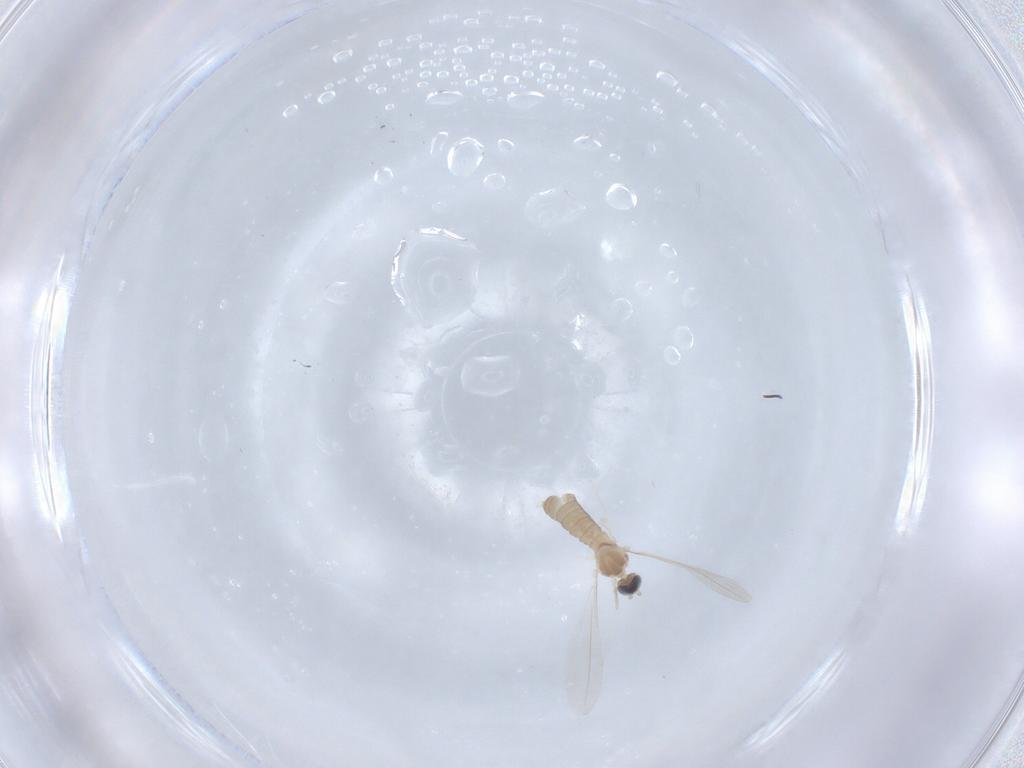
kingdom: Animalia
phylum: Arthropoda
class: Insecta
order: Diptera
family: Cecidomyiidae
